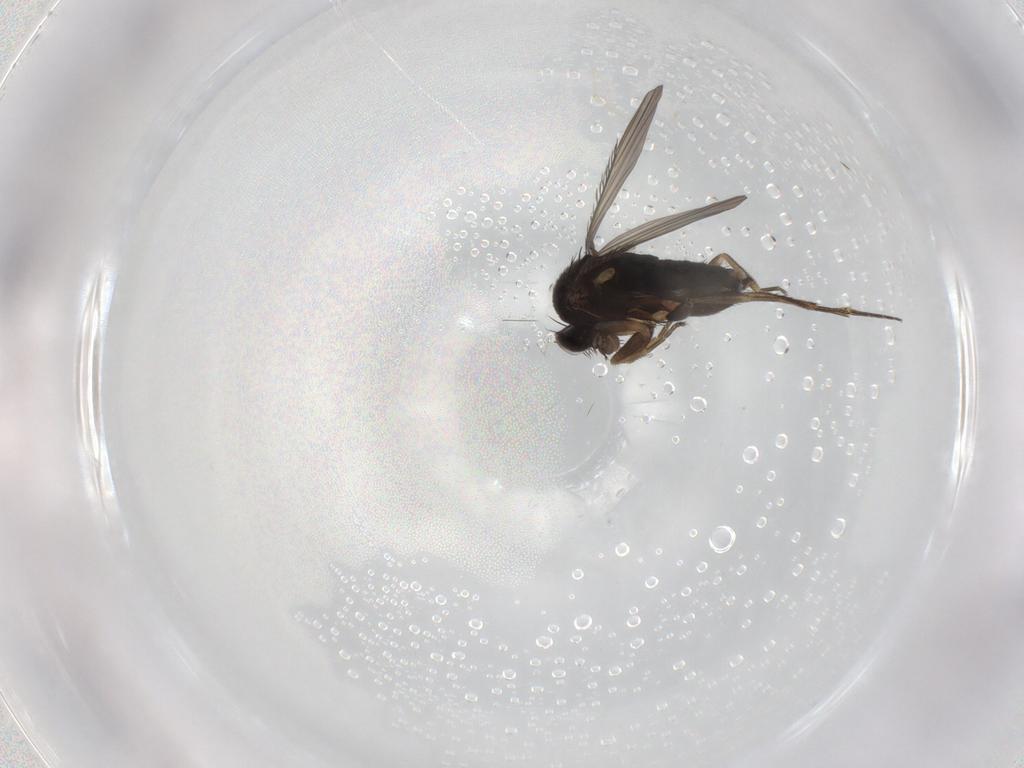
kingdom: Animalia
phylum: Arthropoda
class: Insecta
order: Diptera
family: Phoridae
